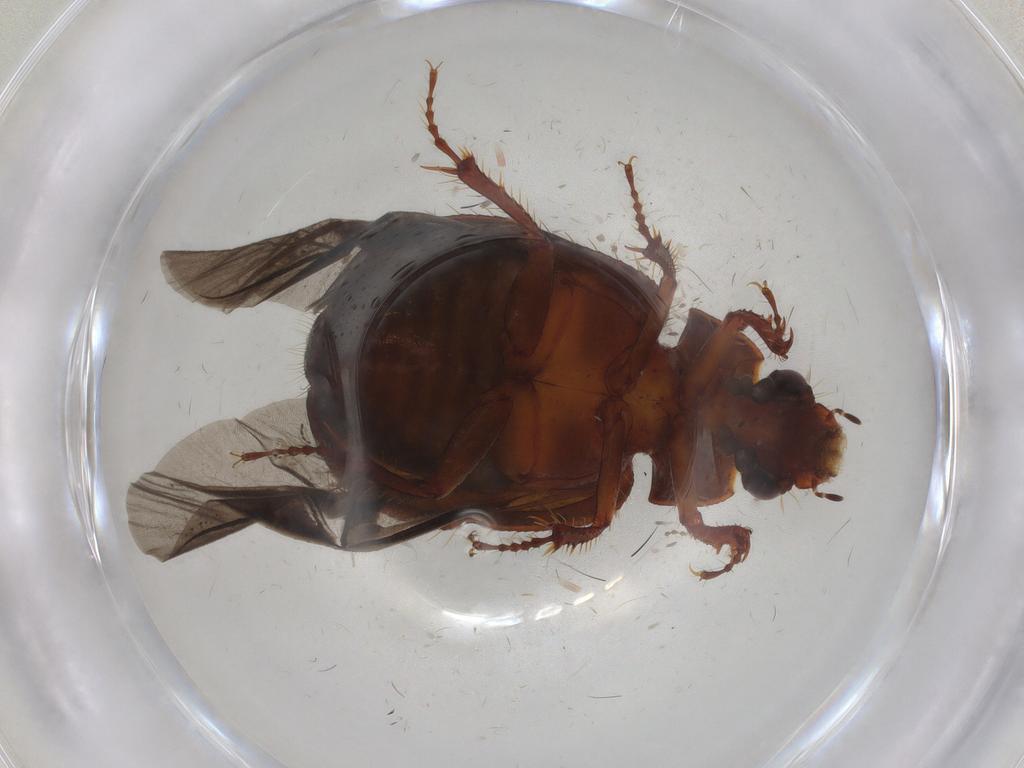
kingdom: Animalia
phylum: Arthropoda
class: Insecta
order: Coleoptera
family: Hybosoridae
